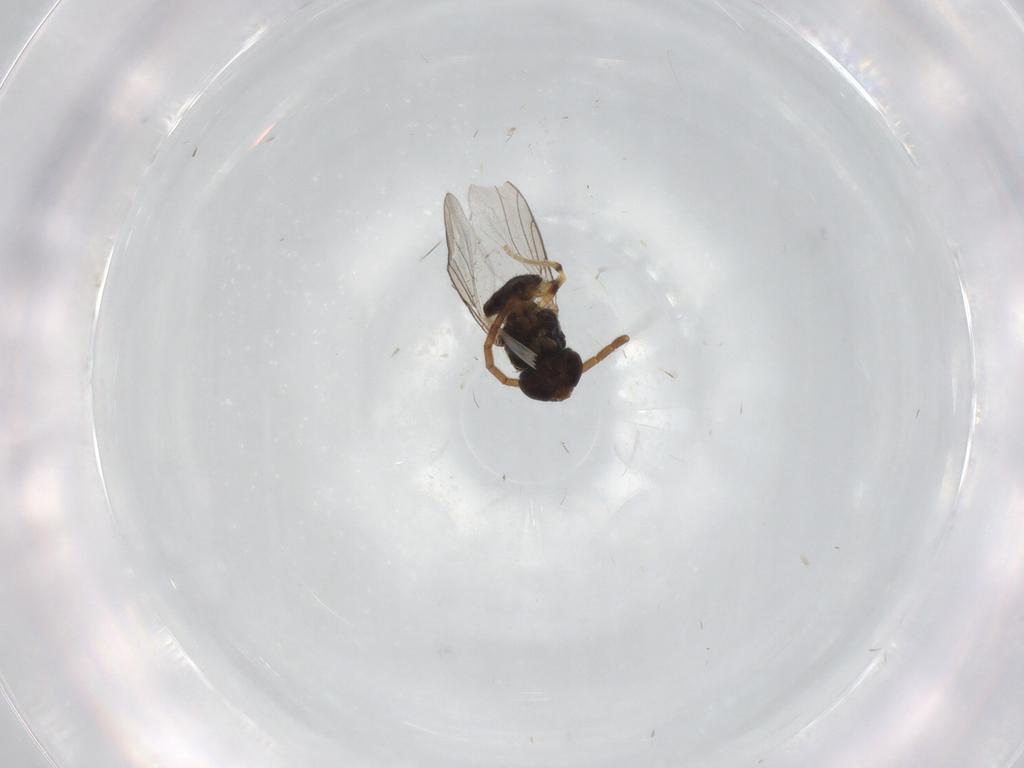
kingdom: Animalia
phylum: Arthropoda
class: Insecta
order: Diptera
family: Chloropidae
